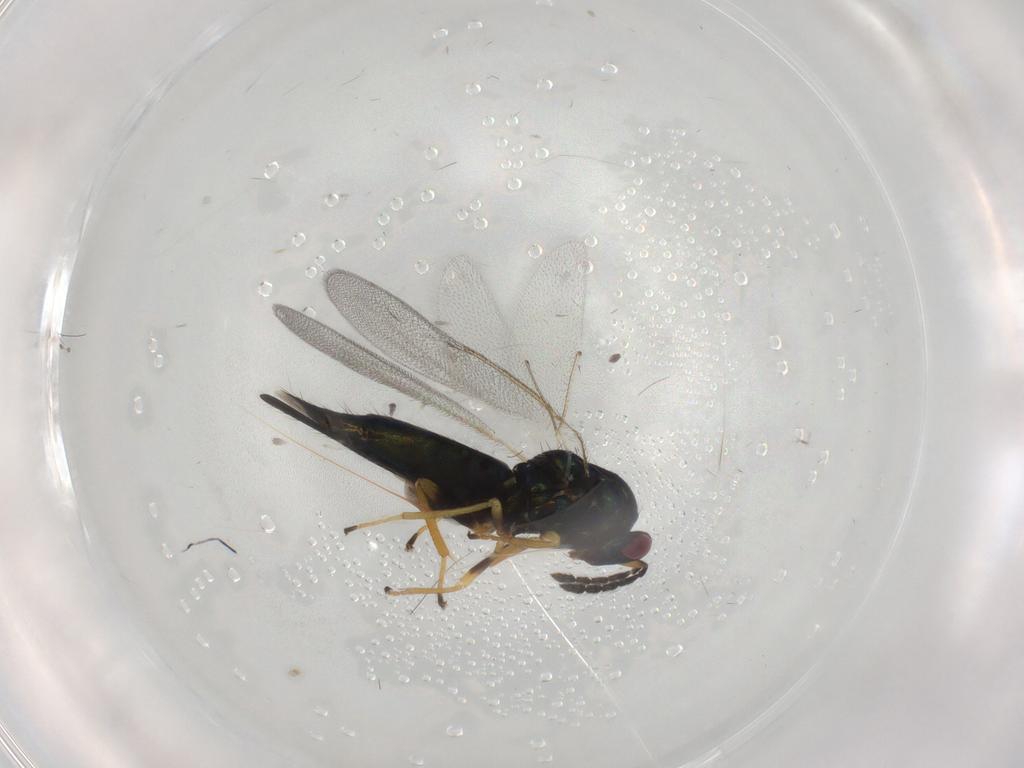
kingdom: Animalia
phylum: Arthropoda
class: Insecta
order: Hymenoptera
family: Signiphoridae
